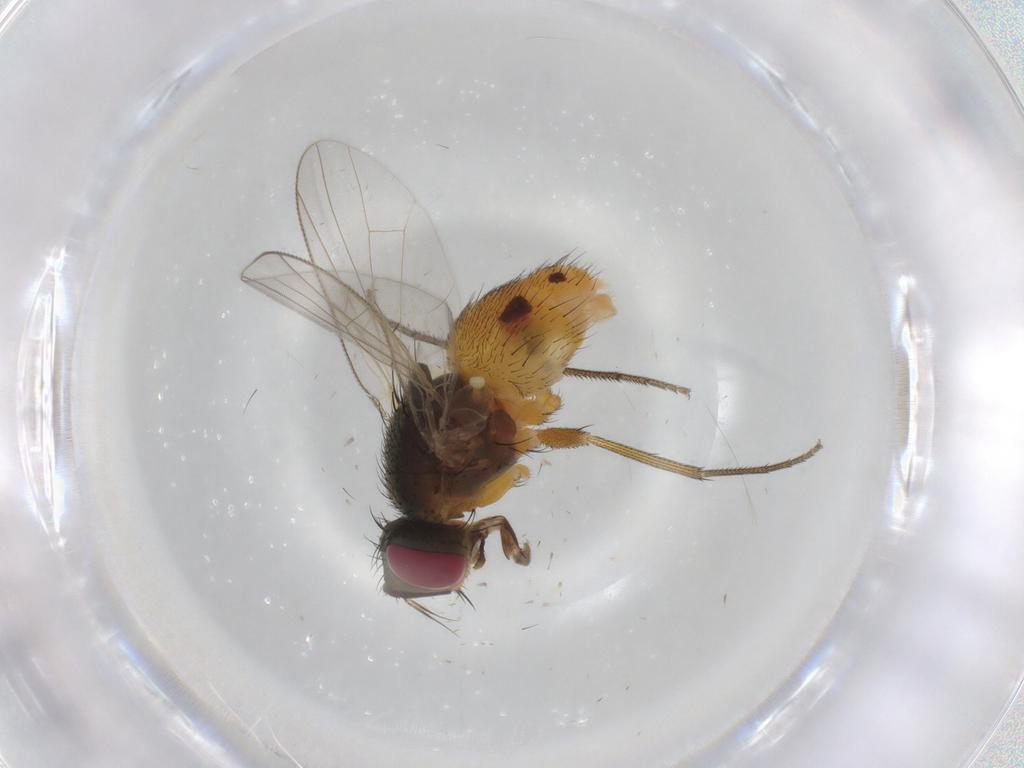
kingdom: Animalia
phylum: Arthropoda
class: Insecta
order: Diptera
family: Muscidae
